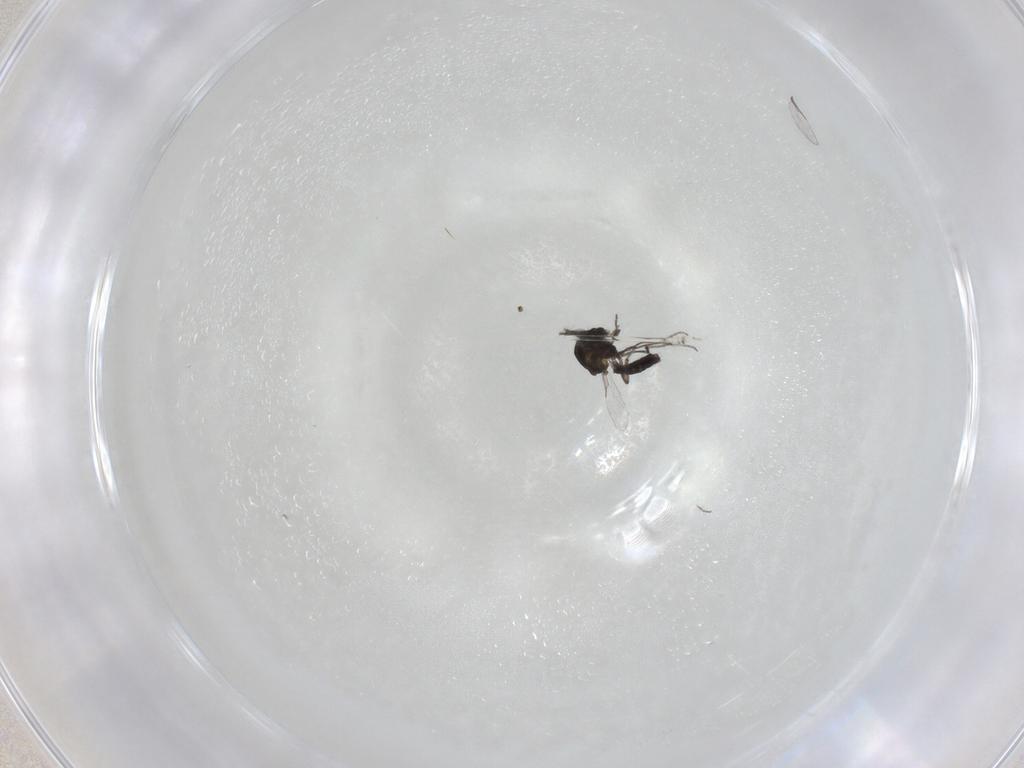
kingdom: Animalia
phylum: Arthropoda
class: Insecta
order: Diptera
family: Ceratopogonidae
